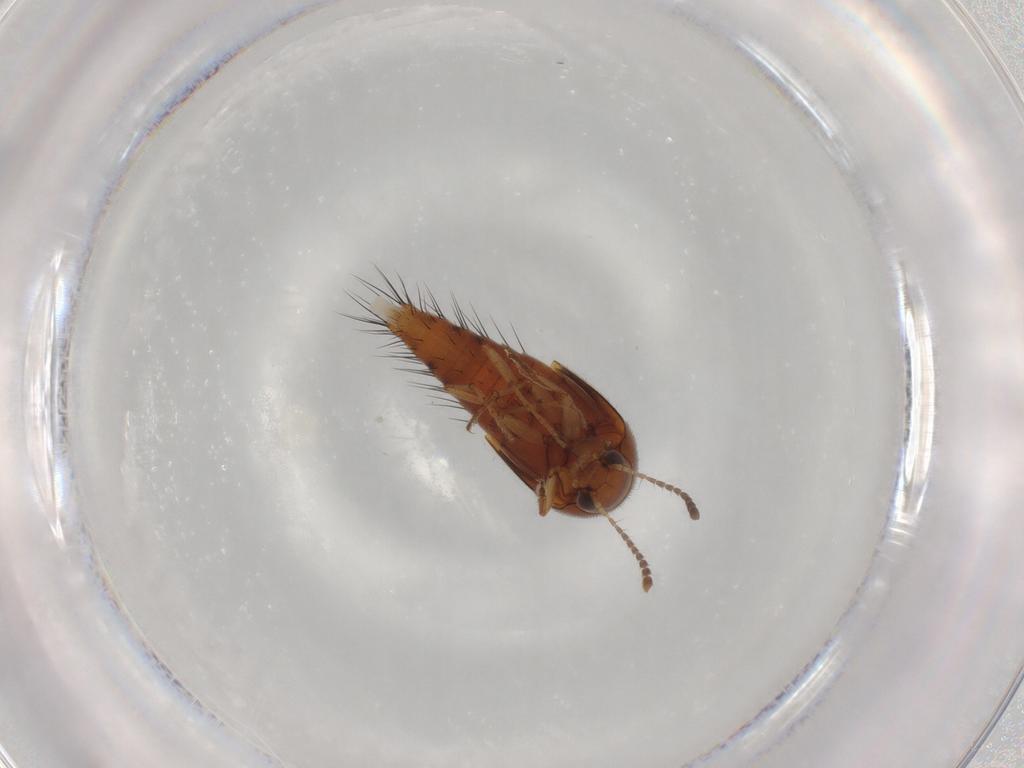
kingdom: Animalia
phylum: Arthropoda
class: Insecta
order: Coleoptera
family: Staphylinidae
